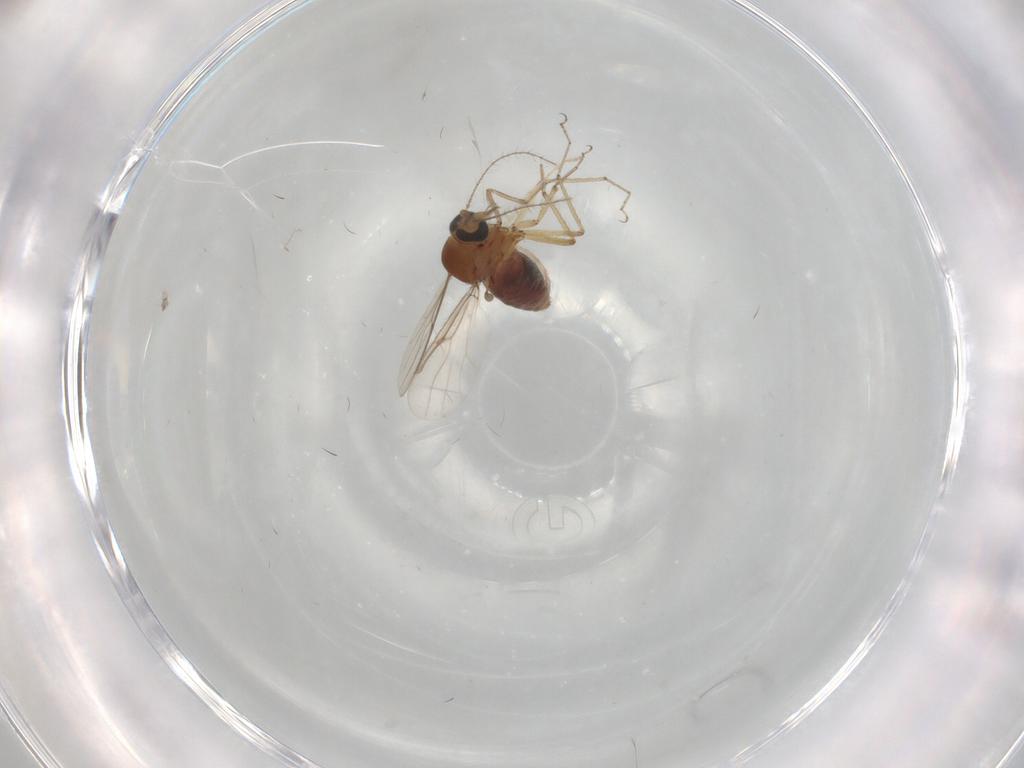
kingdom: Animalia
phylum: Arthropoda
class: Insecta
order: Diptera
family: Cecidomyiidae
